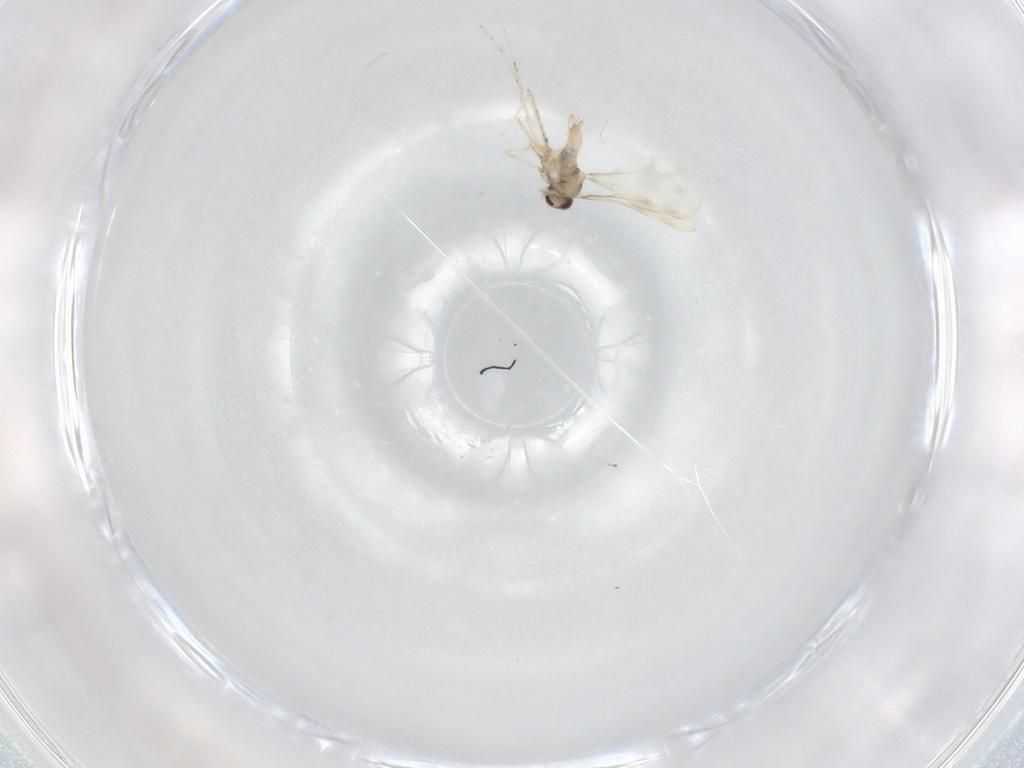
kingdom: Animalia
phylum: Arthropoda
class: Insecta
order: Diptera
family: Cecidomyiidae
